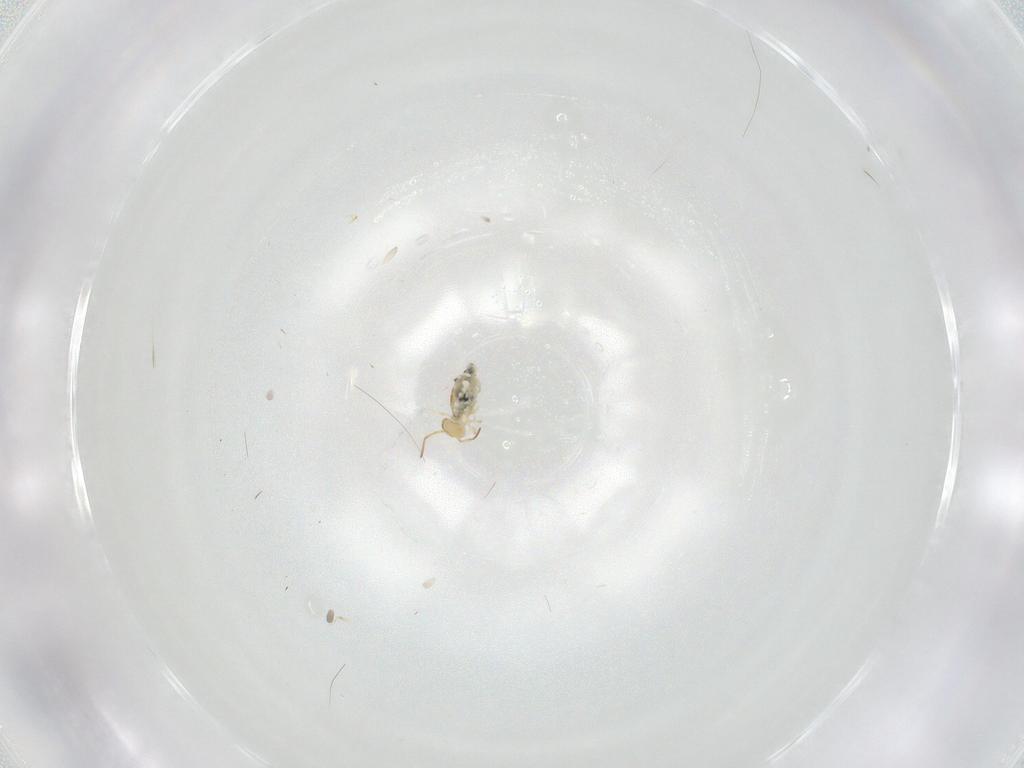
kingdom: Animalia
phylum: Arthropoda
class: Collembola
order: Symphypleona
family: Bourletiellidae
